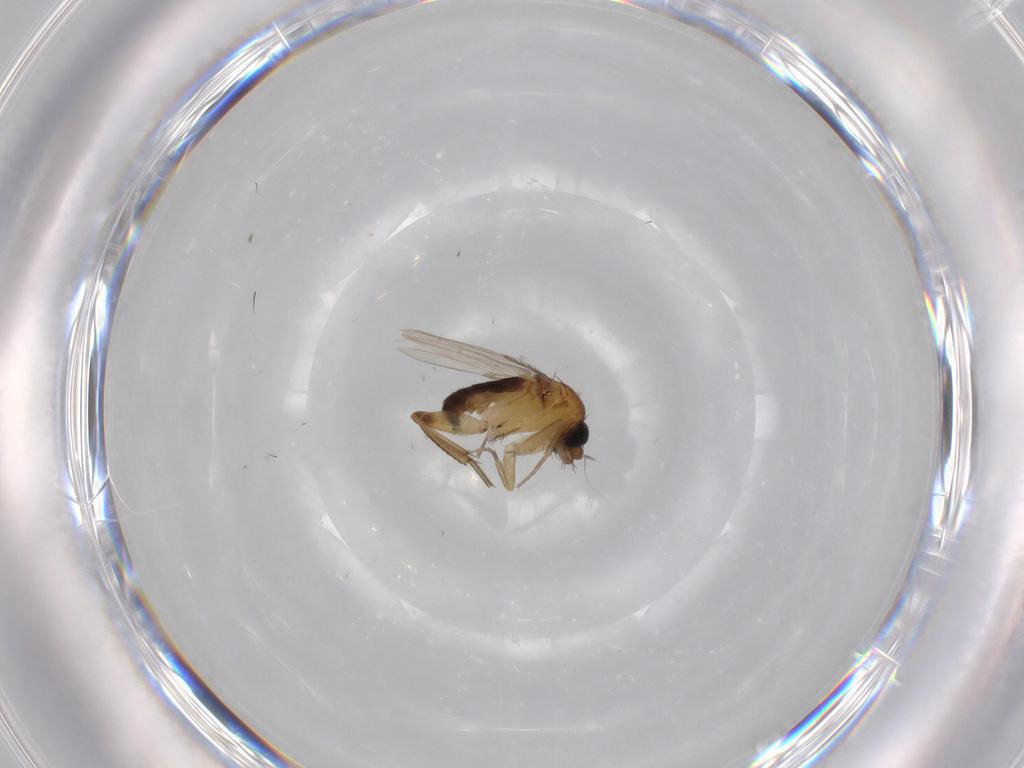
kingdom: Animalia
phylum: Arthropoda
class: Insecta
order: Diptera
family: Phoridae
